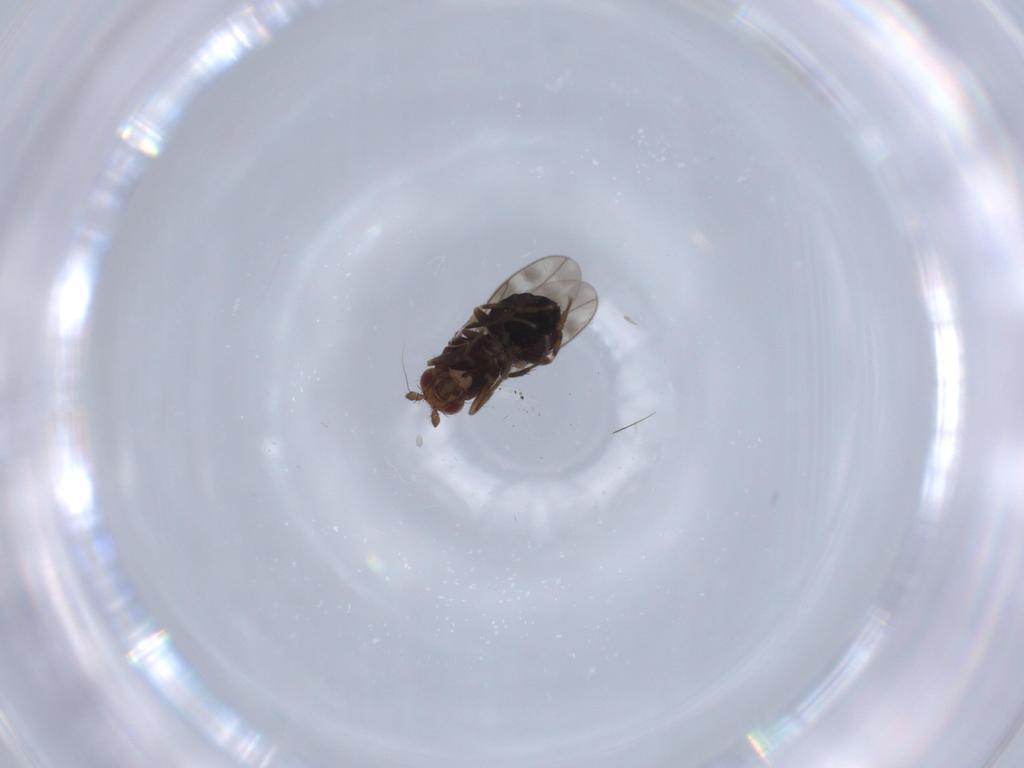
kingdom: Animalia
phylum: Arthropoda
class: Insecta
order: Diptera
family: Sphaeroceridae
